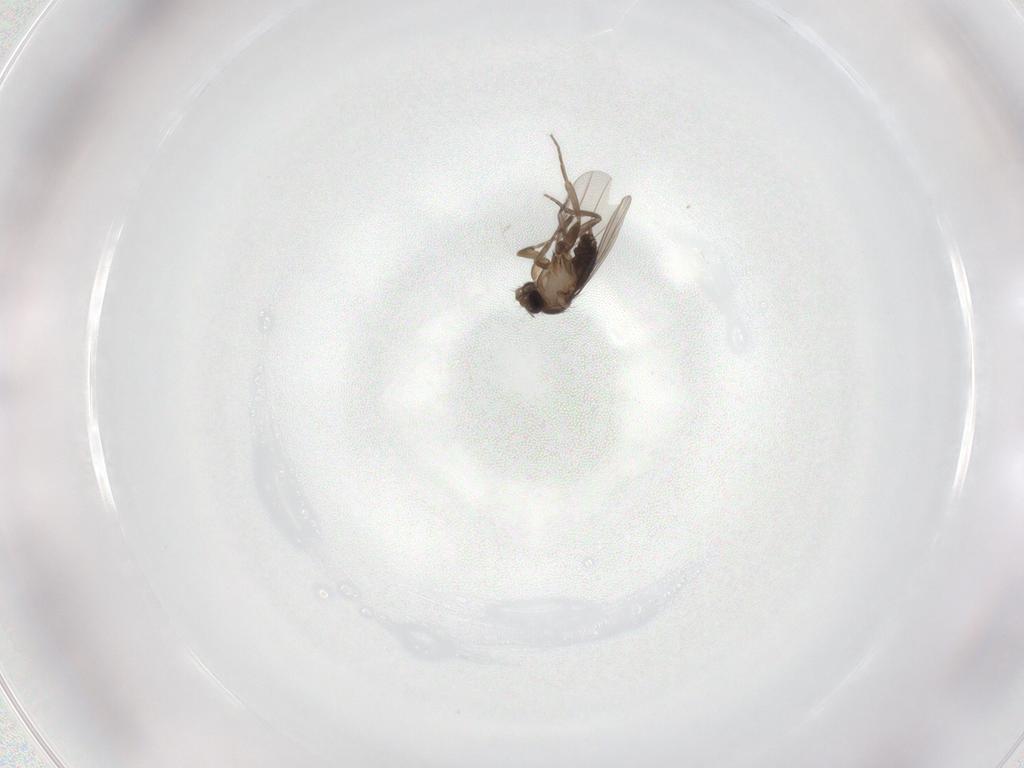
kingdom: Animalia
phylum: Arthropoda
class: Insecta
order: Diptera
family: Phoridae
